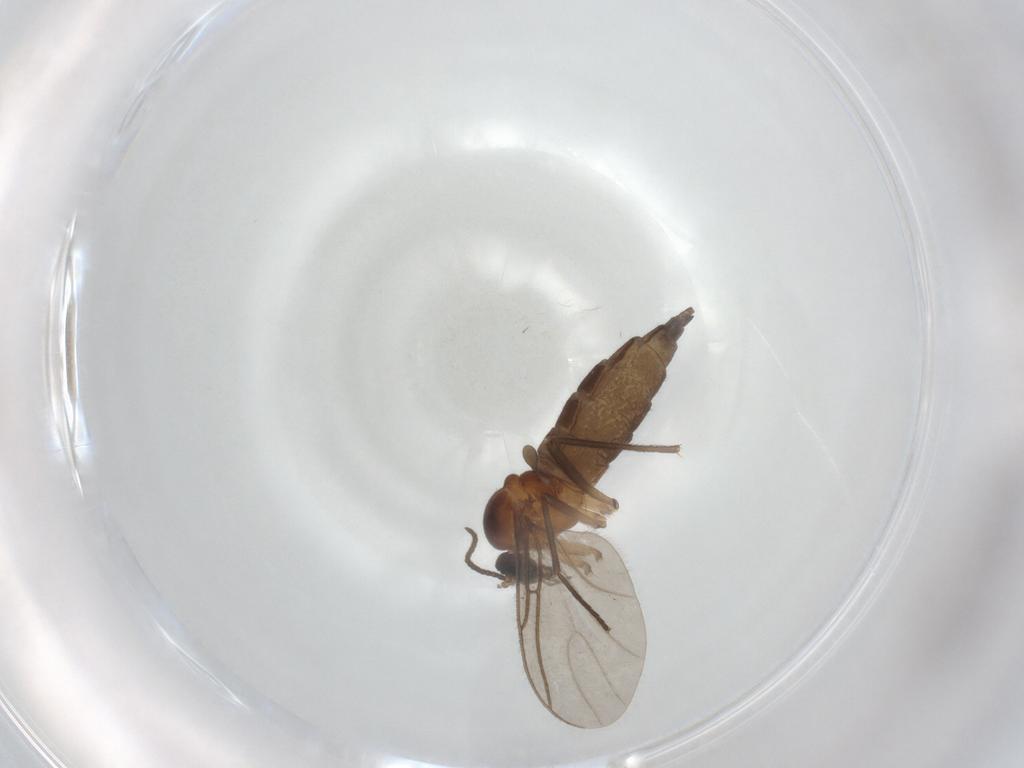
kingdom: Animalia
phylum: Arthropoda
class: Insecta
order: Diptera
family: Sciaridae
